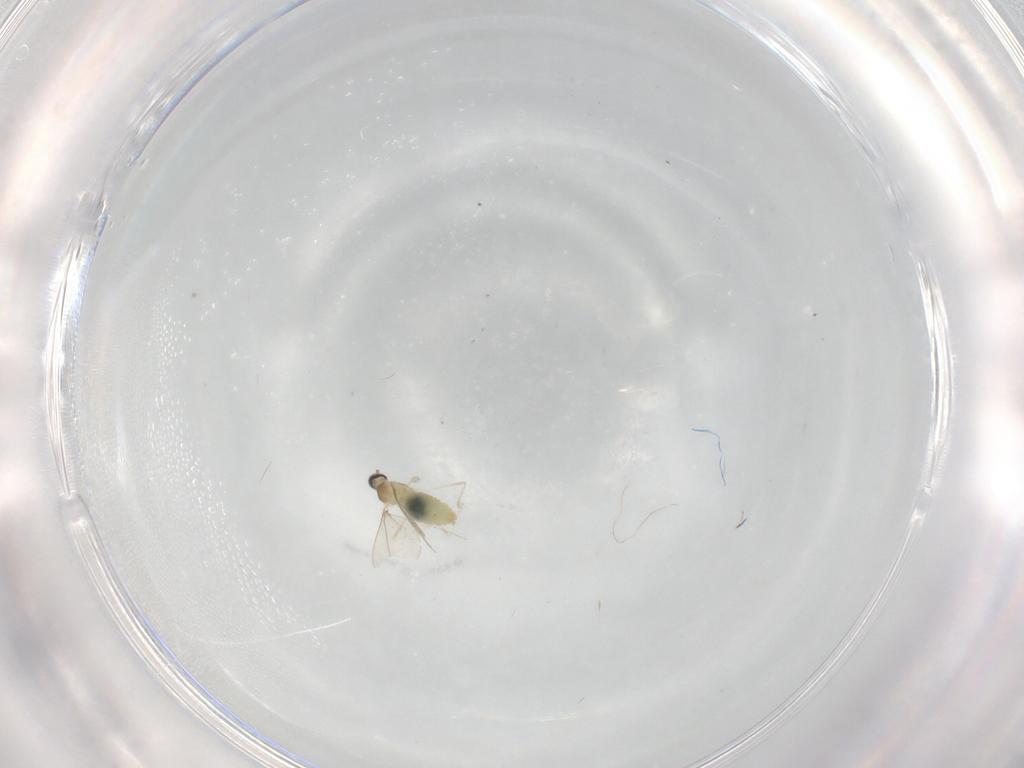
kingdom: Animalia
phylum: Arthropoda
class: Insecta
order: Diptera
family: Cecidomyiidae
